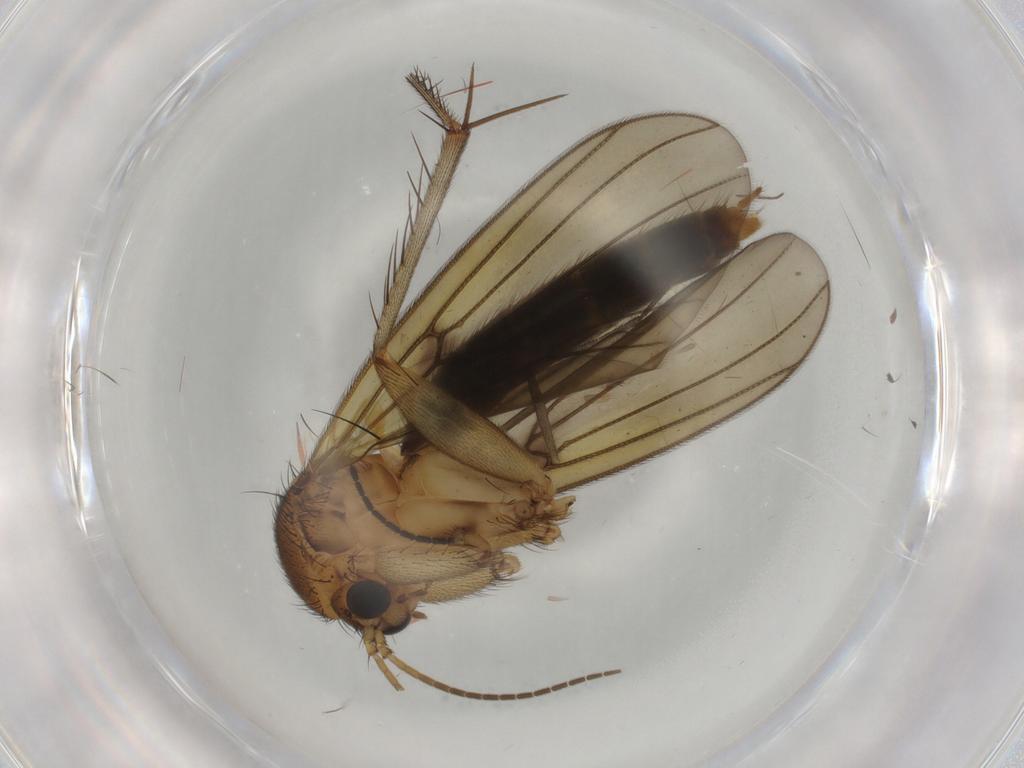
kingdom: Animalia
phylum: Arthropoda
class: Insecta
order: Diptera
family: Mycetophilidae
